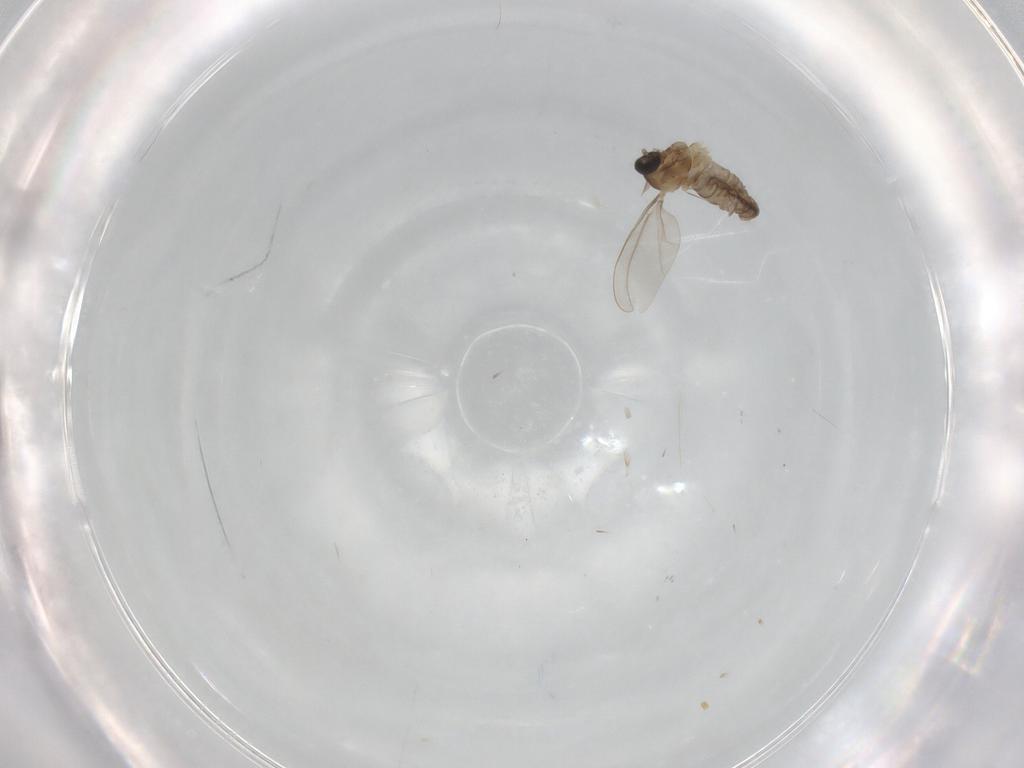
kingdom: Animalia
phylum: Arthropoda
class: Insecta
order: Diptera
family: Cecidomyiidae
